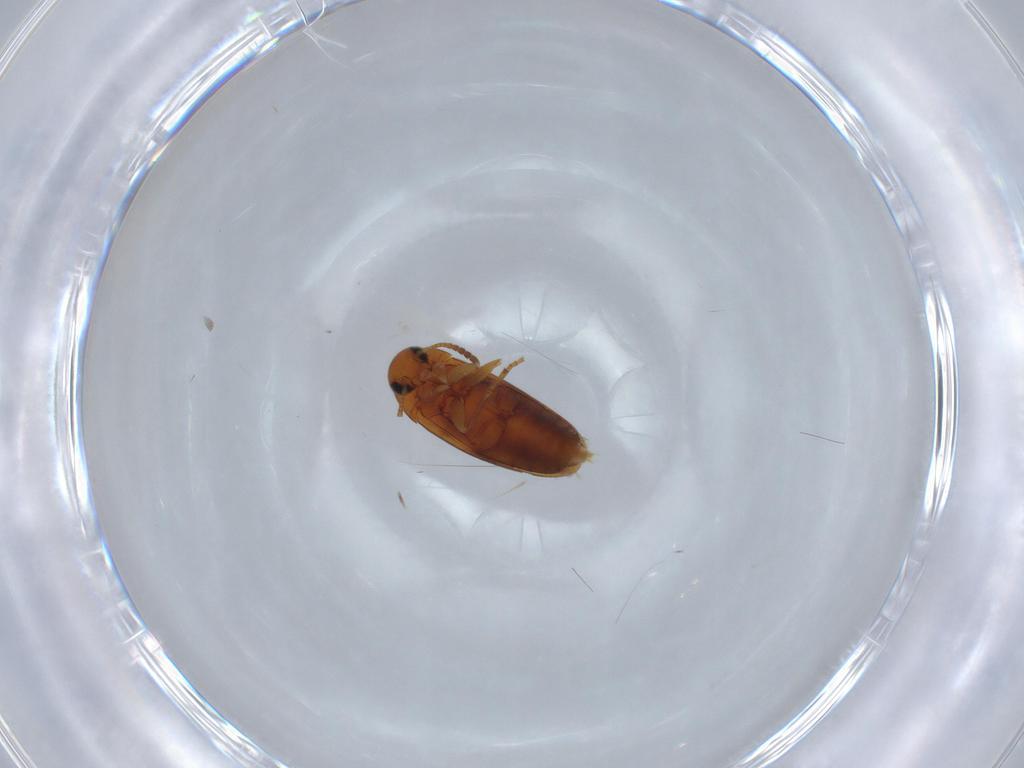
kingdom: Animalia
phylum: Arthropoda
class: Insecta
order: Coleoptera
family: Scraptiidae
